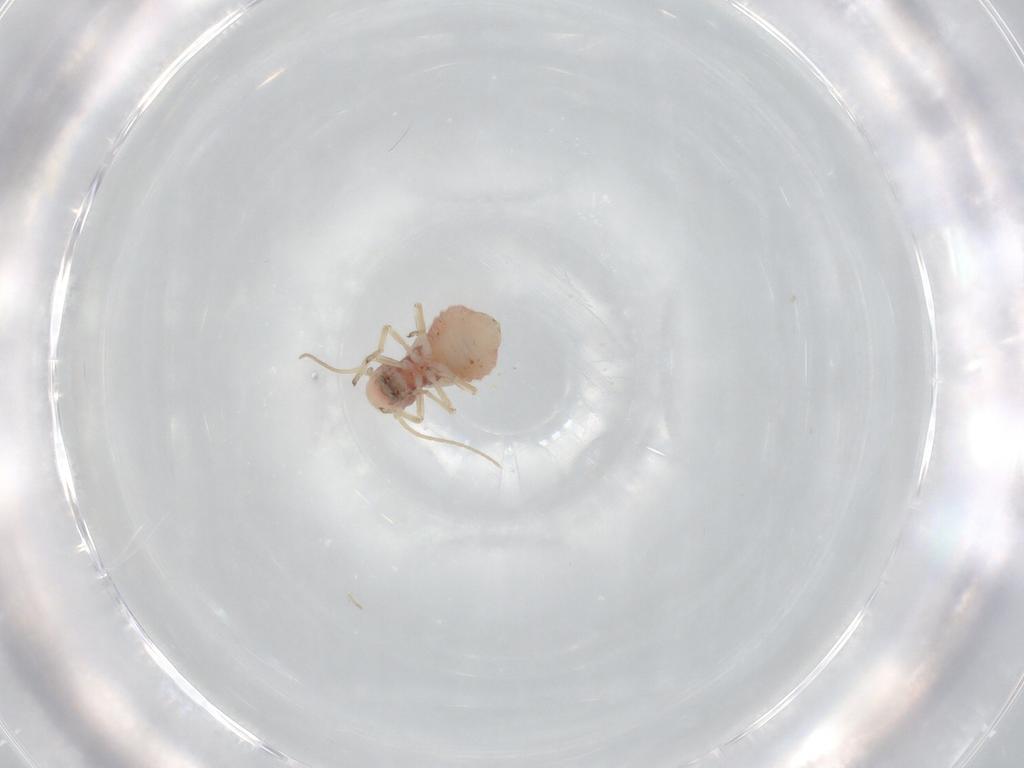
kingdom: Animalia
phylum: Arthropoda
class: Insecta
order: Psocodea
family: Caeciliusidae
